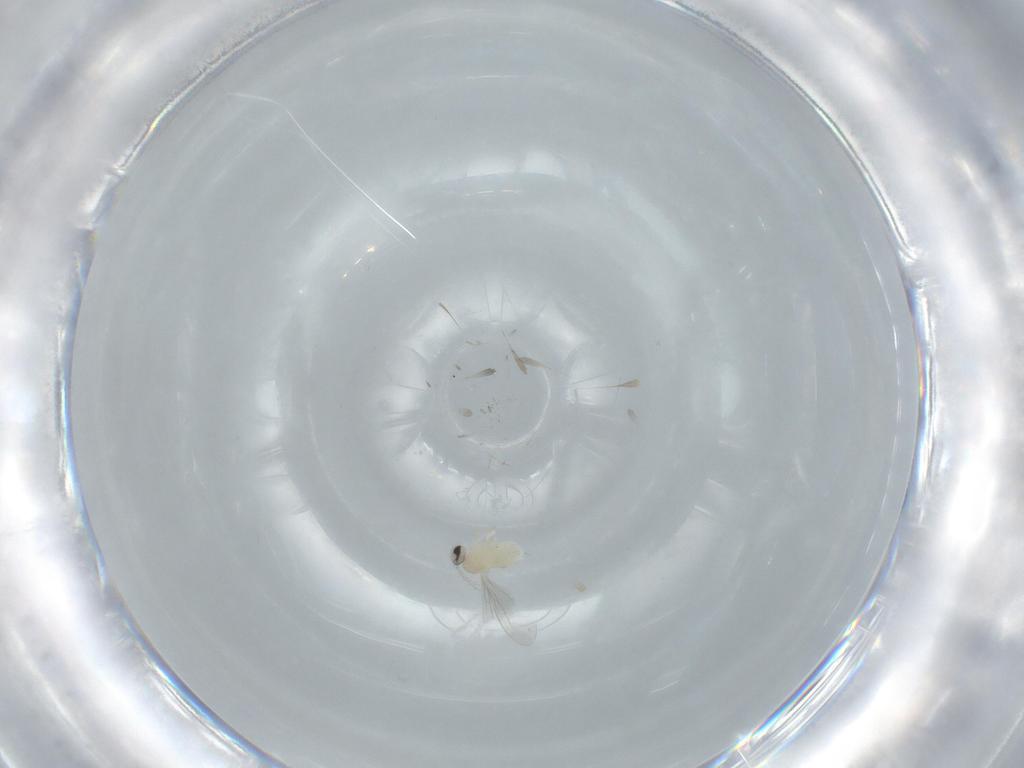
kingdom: Animalia
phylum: Arthropoda
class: Insecta
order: Diptera
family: Cecidomyiidae
